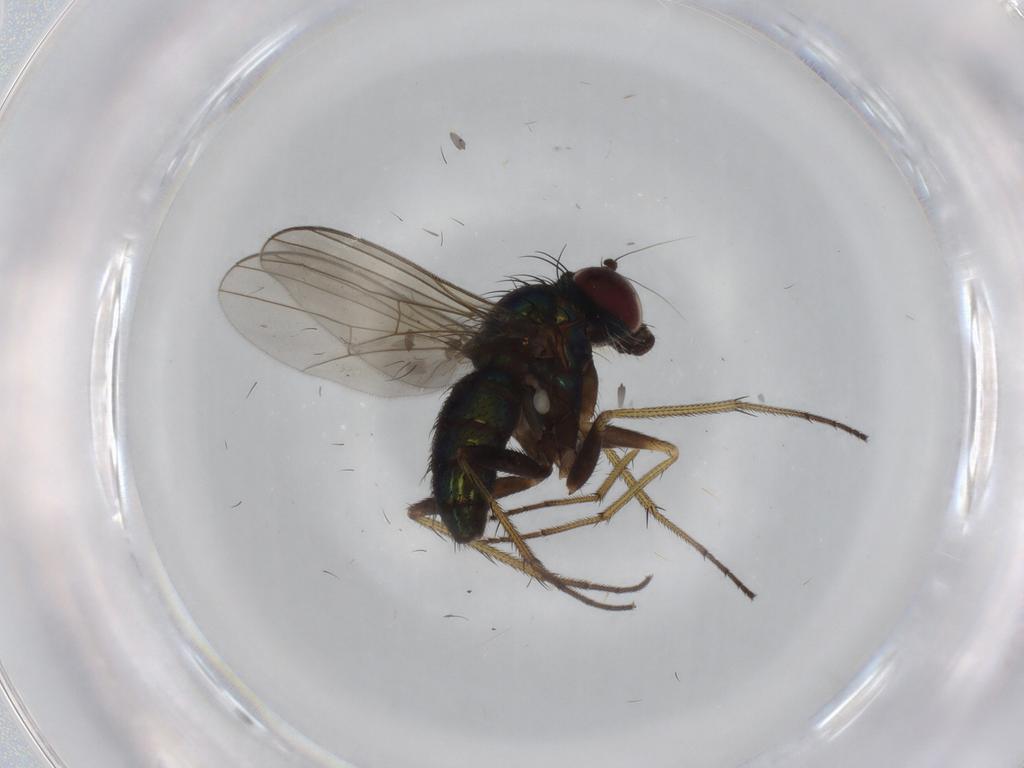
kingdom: Animalia
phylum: Arthropoda
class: Insecta
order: Diptera
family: Dolichopodidae
